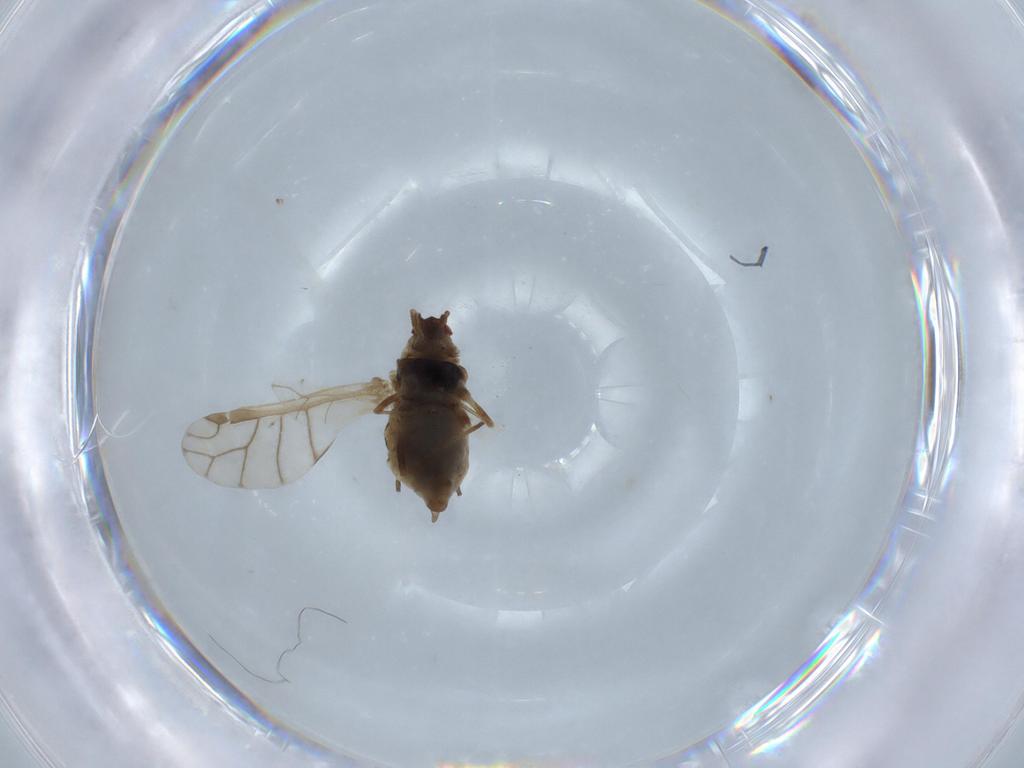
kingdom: Animalia
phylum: Arthropoda
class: Insecta
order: Hemiptera
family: Aphididae
